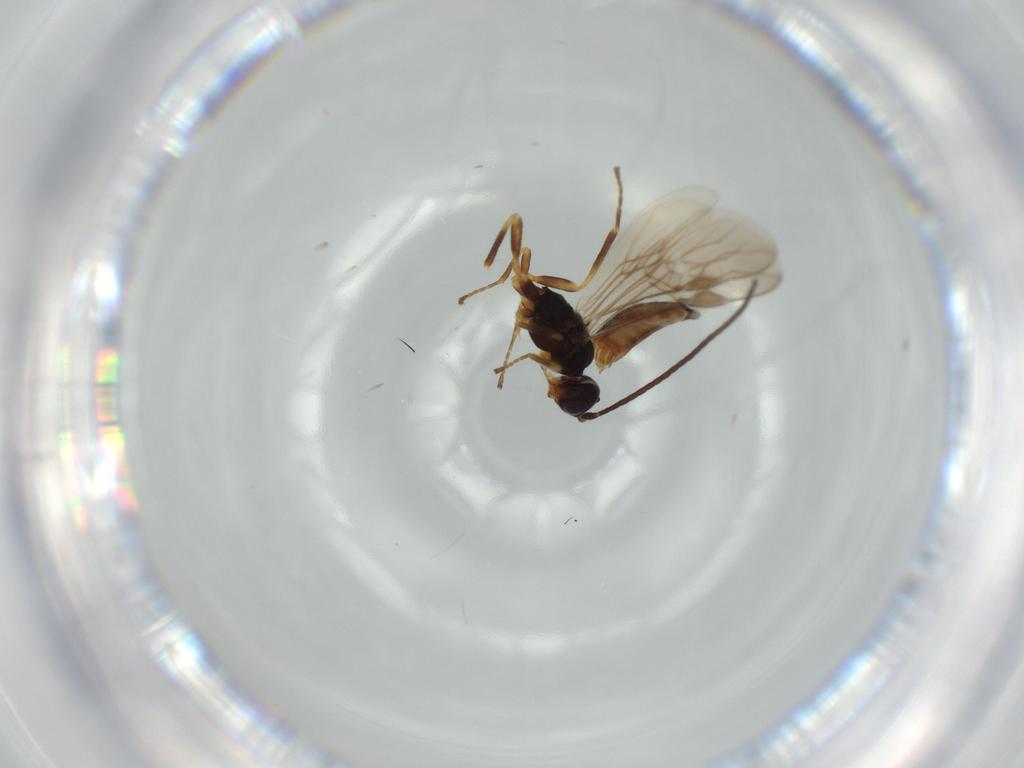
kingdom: Animalia
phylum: Arthropoda
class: Insecta
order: Hymenoptera
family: Braconidae
